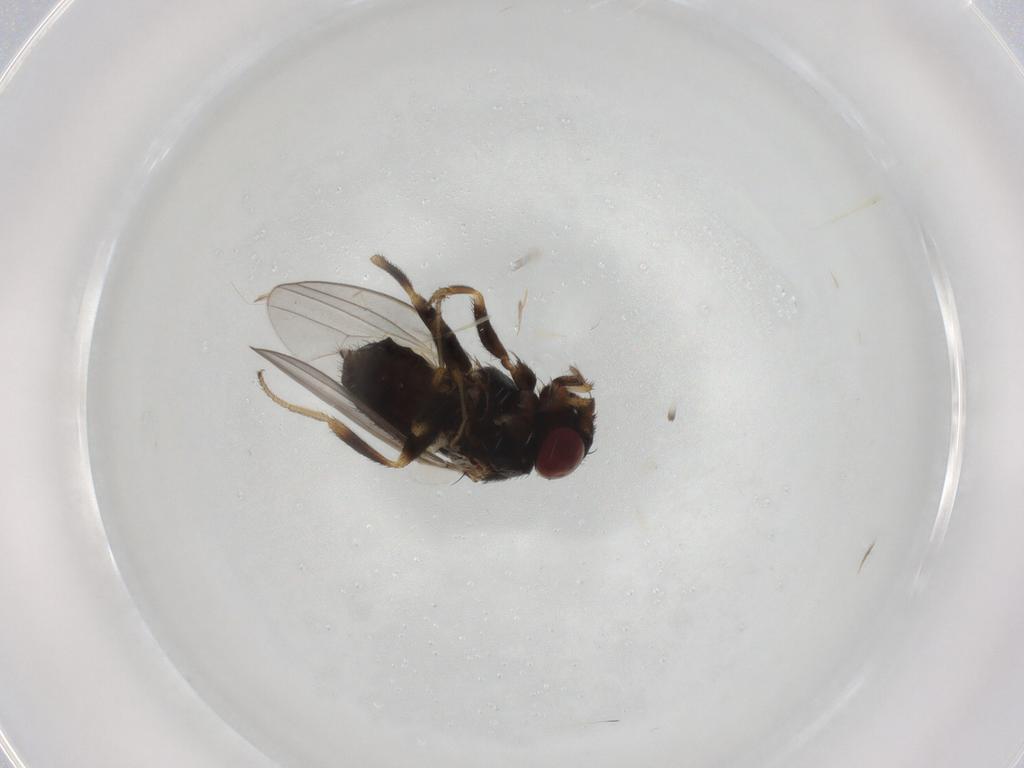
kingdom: Animalia
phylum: Arthropoda
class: Insecta
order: Diptera
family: Milichiidae
